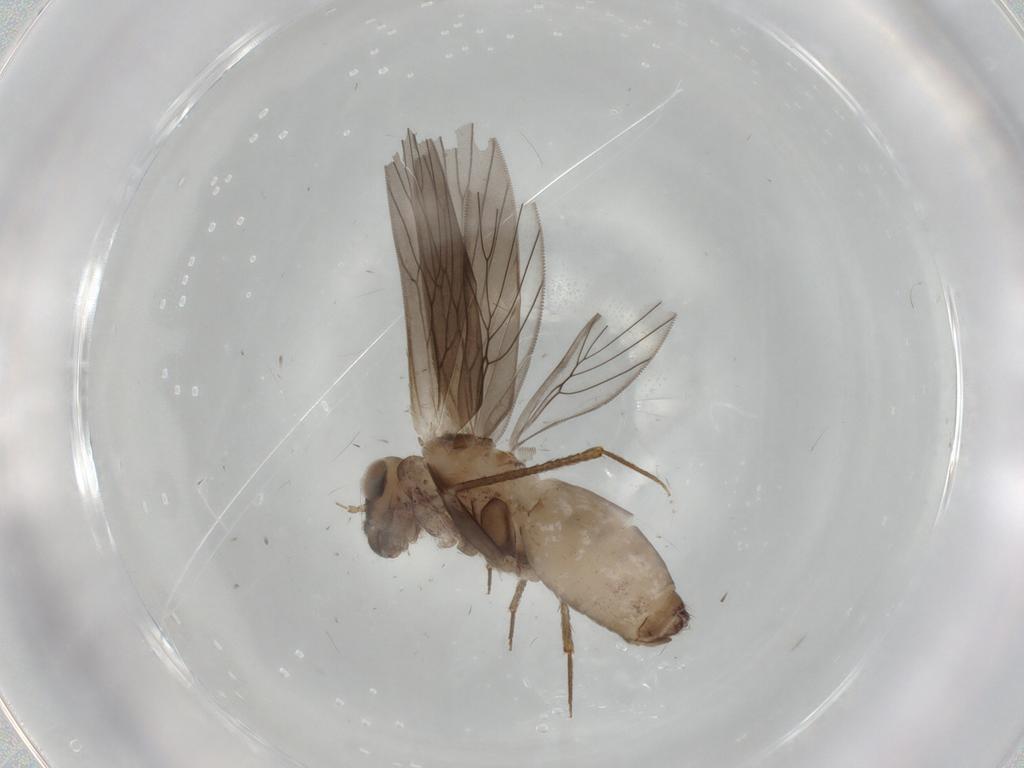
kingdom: Animalia
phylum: Arthropoda
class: Insecta
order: Psocodea
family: Lepidopsocidae
